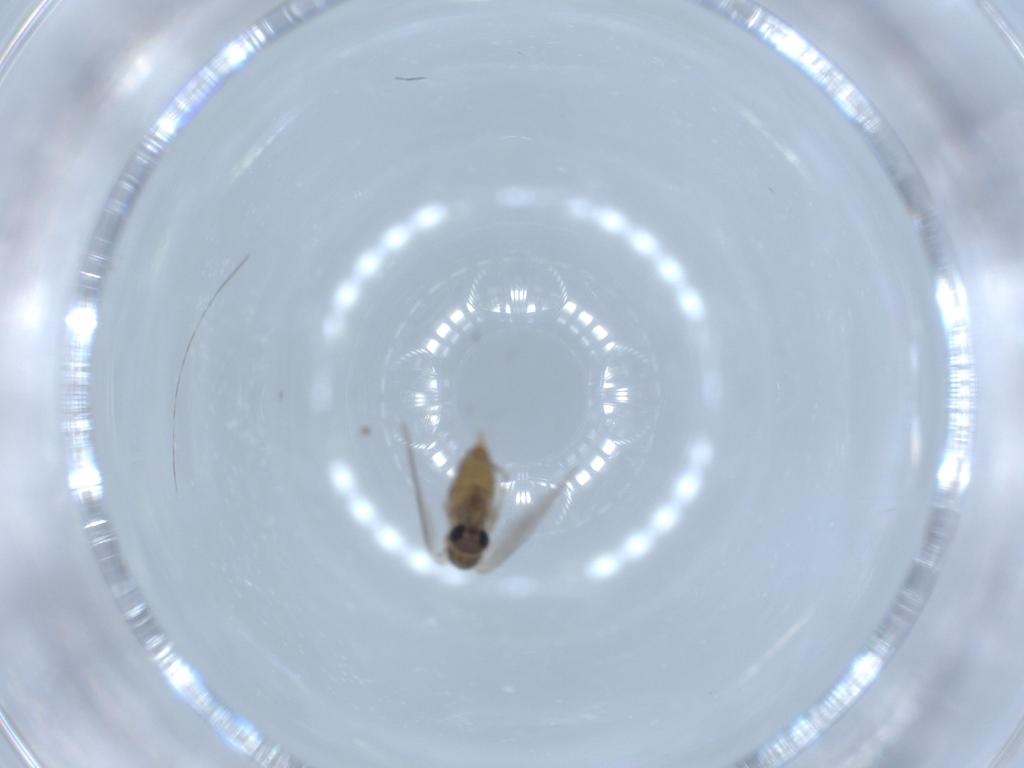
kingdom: Animalia
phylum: Arthropoda
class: Insecta
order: Diptera
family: Psychodidae
